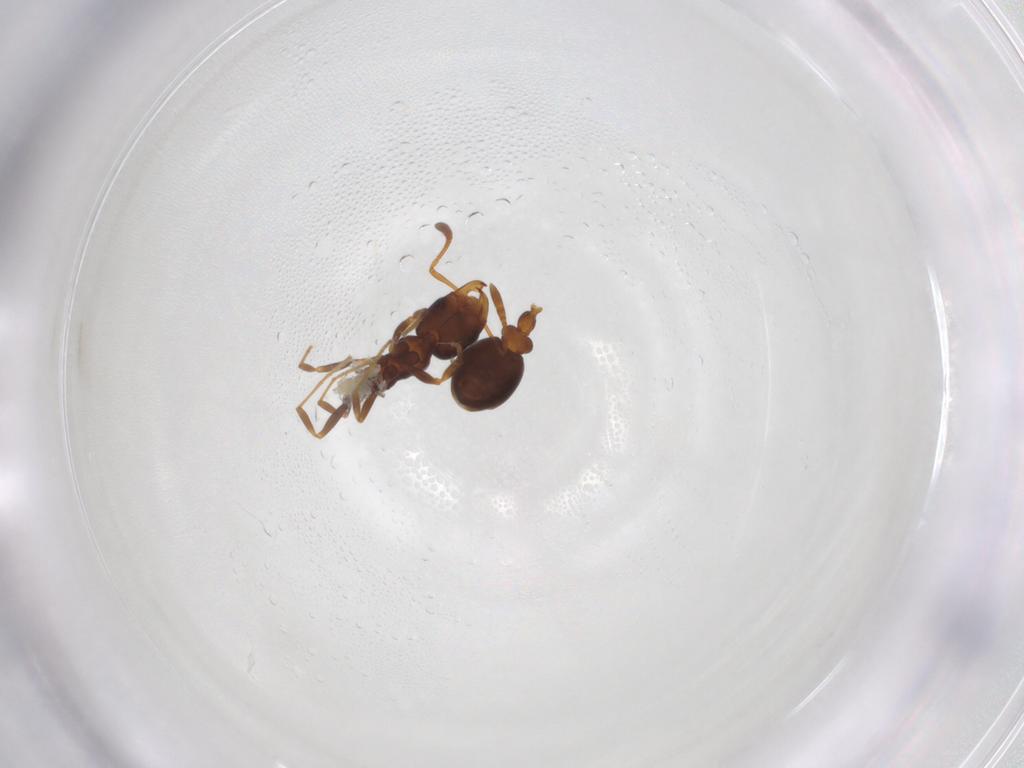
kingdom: Animalia
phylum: Arthropoda
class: Insecta
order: Hymenoptera
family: Formicidae
